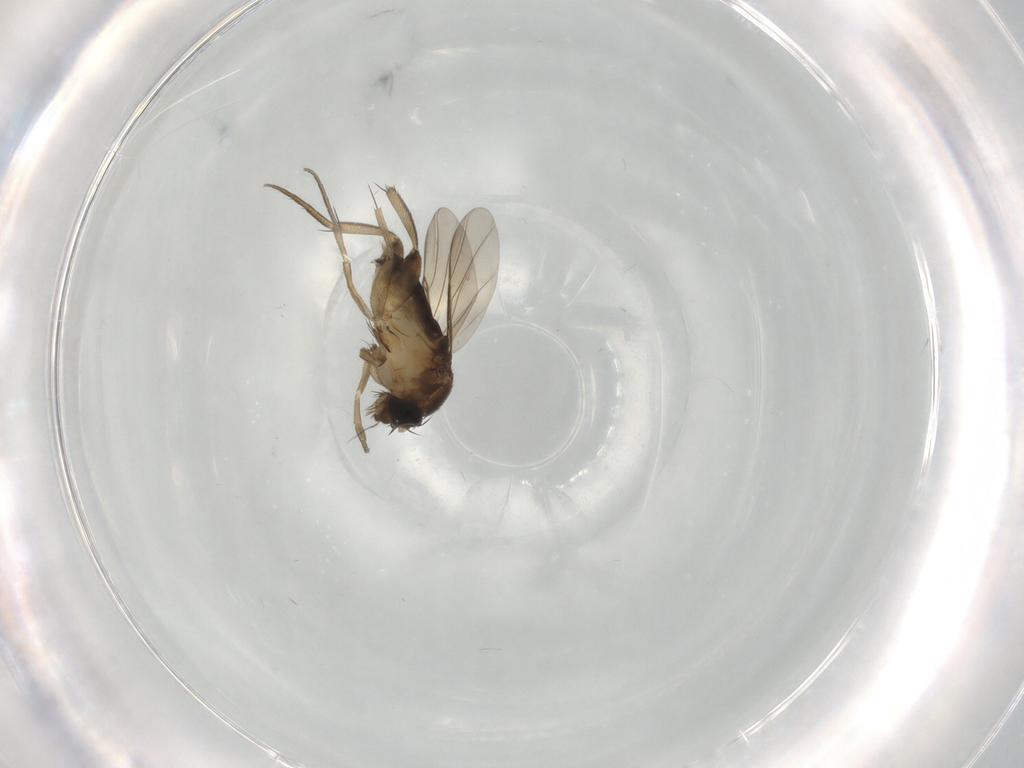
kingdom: Animalia
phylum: Arthropoda
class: Insecta
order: Diptera
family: Phoridae
